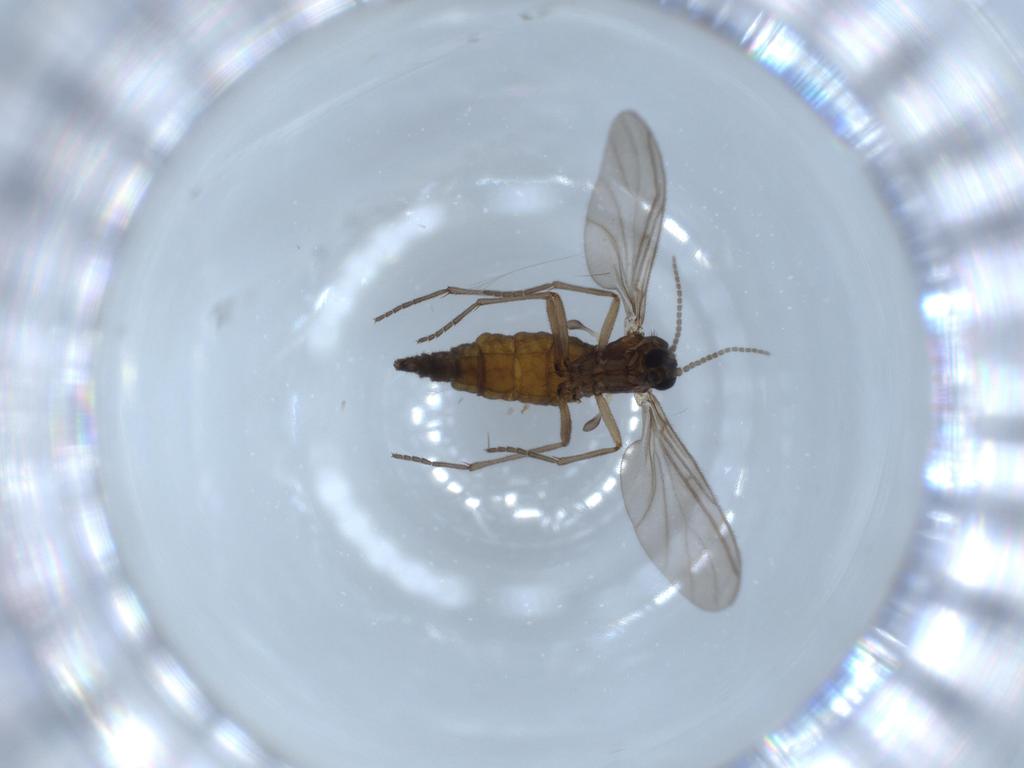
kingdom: Animalia
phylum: Arthropoda
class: Insecta
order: Diptera
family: Sciaridae
